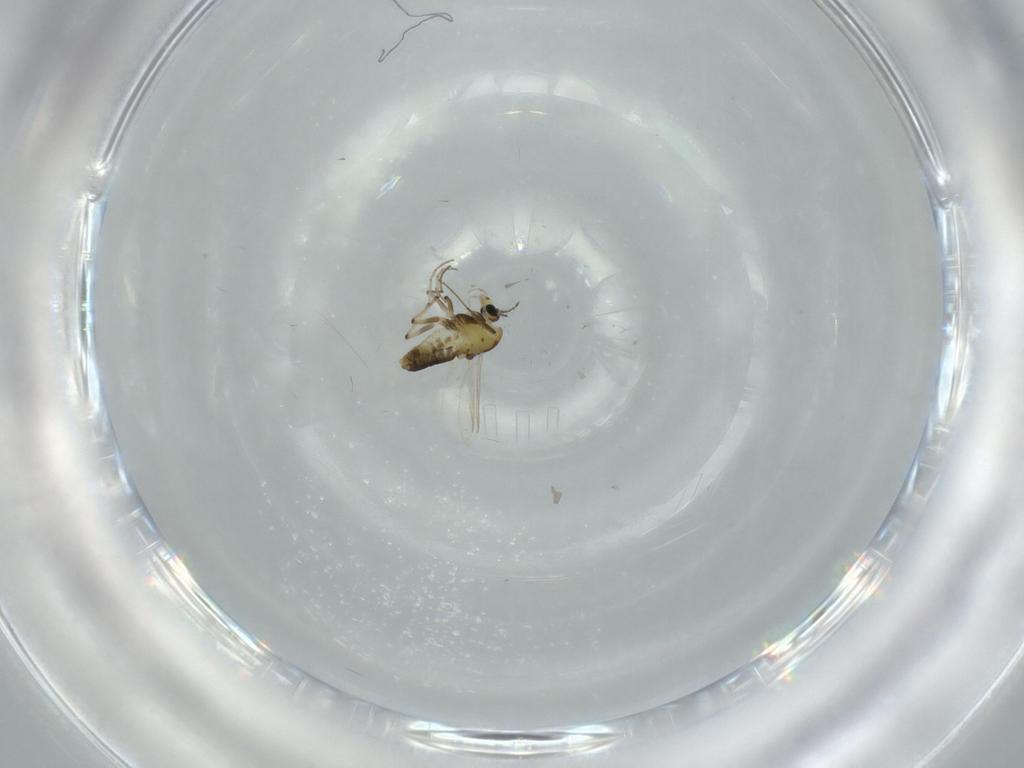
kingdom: Animalia
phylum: Arthropoda
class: Insecta
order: Diptera
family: Chironomidae
